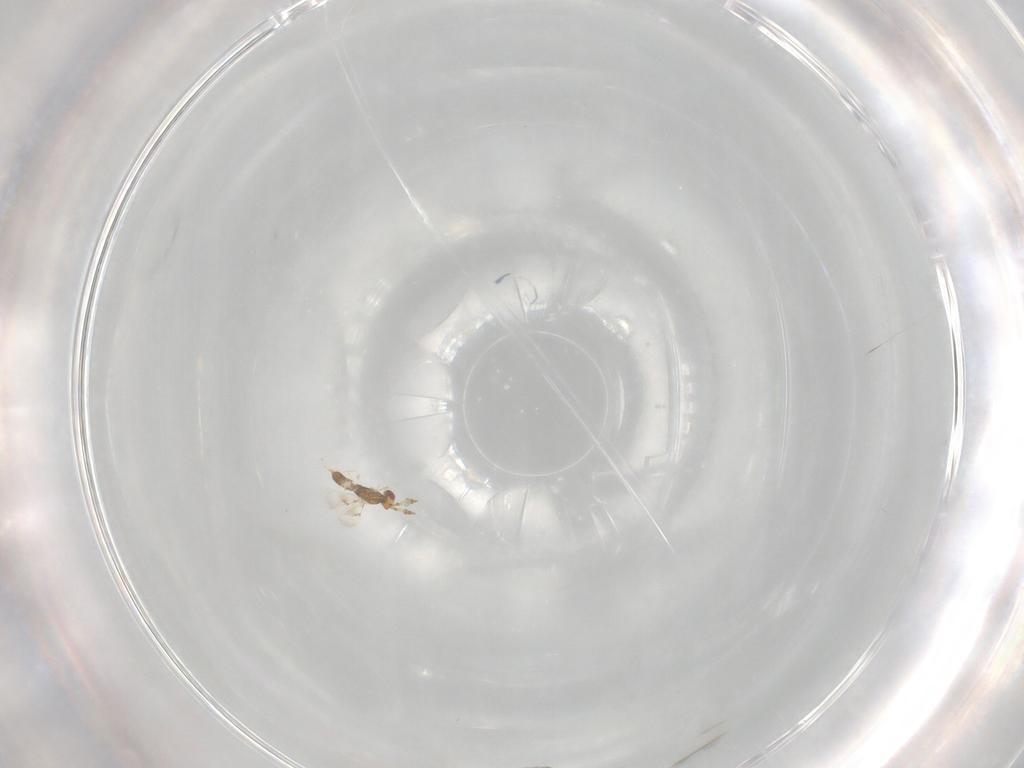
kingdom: Animalia
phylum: Arthropoda
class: Insecta
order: Hymenoptera
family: Eulophidae
